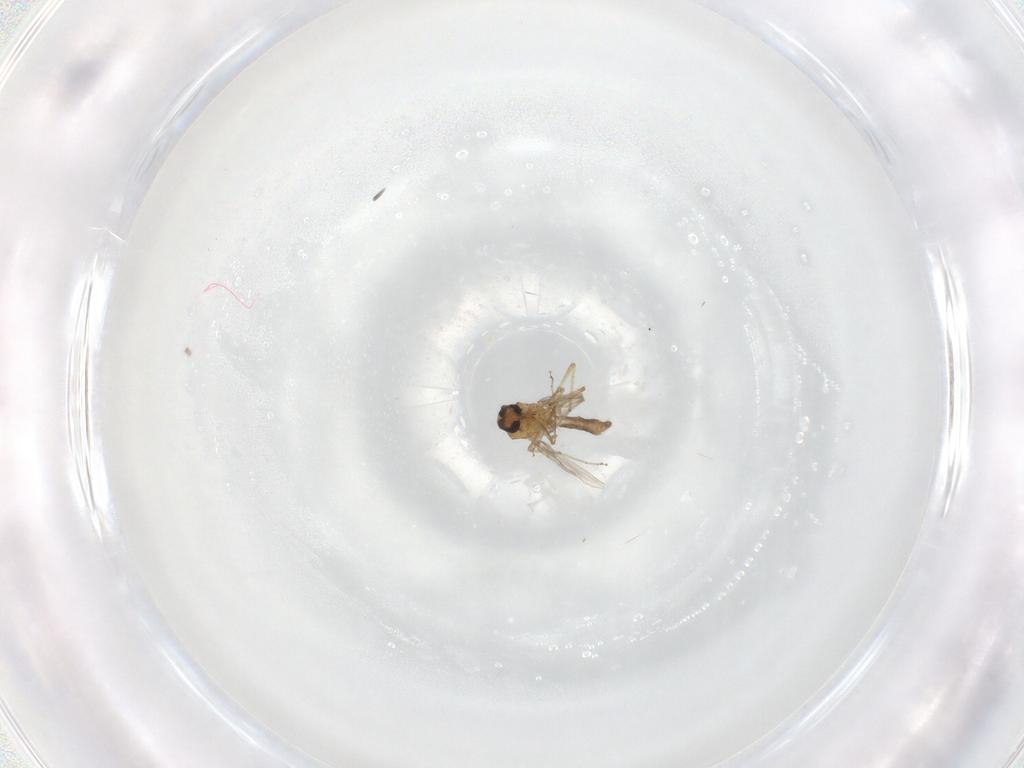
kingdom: Animalia
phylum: Arthropoda
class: Insecta
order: Diptera
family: Ceratopogonidae
